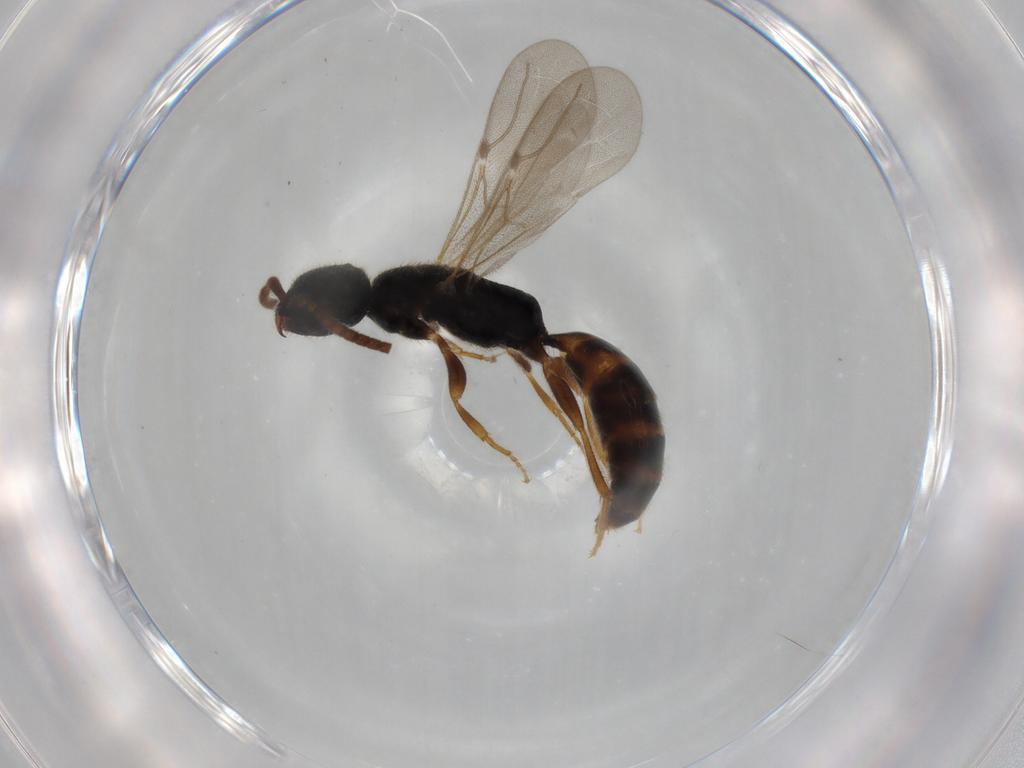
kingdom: Animalia
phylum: Arthropoda
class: Insecta
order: Hymenoptera
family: Bethylidae
